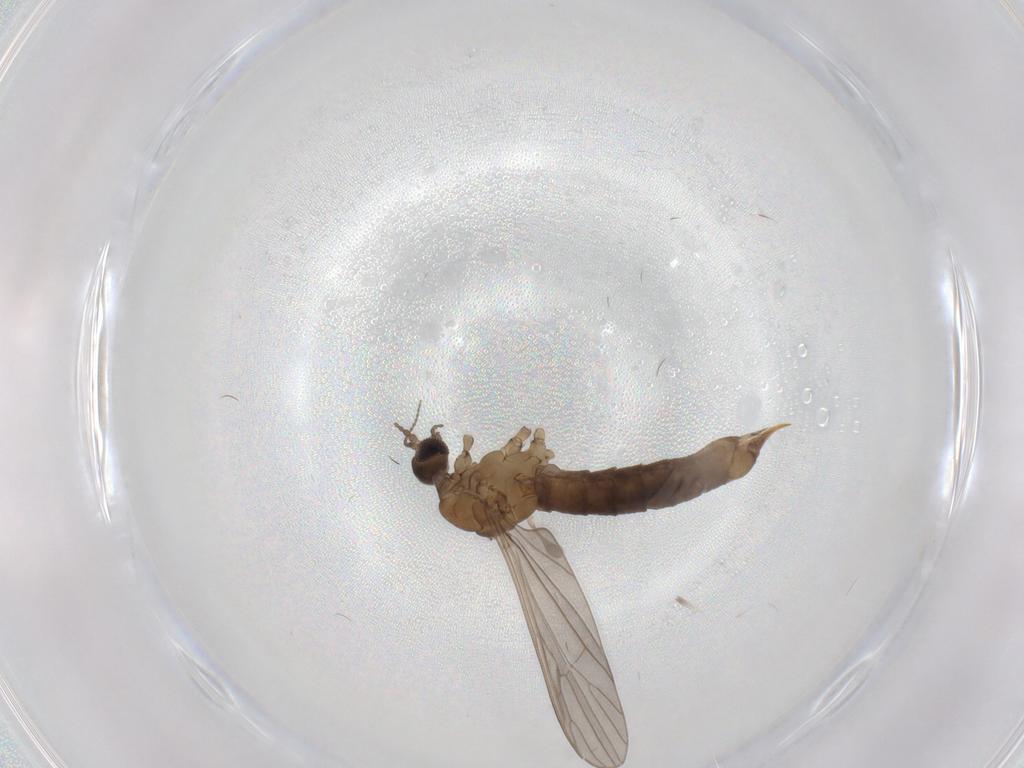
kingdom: Animalia
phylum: Arthropoda
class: Insecta
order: Diptera
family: Limoniidae
